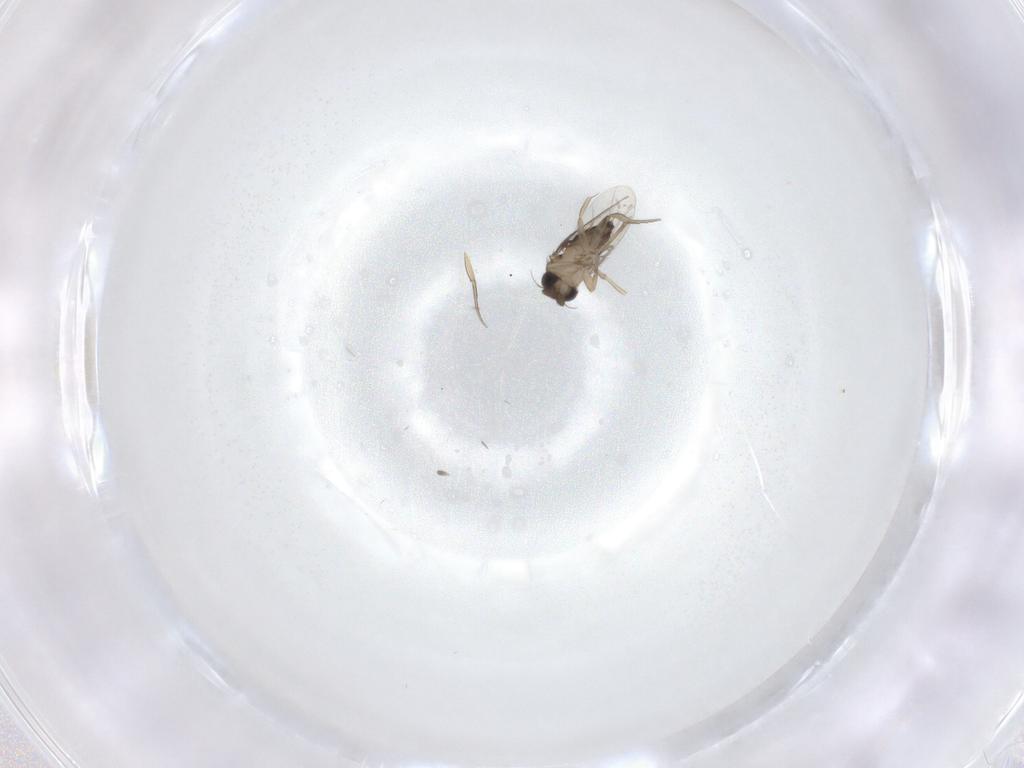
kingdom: Animalia
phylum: Arthropoda
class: Insecta
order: Diptera
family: Phoridae
